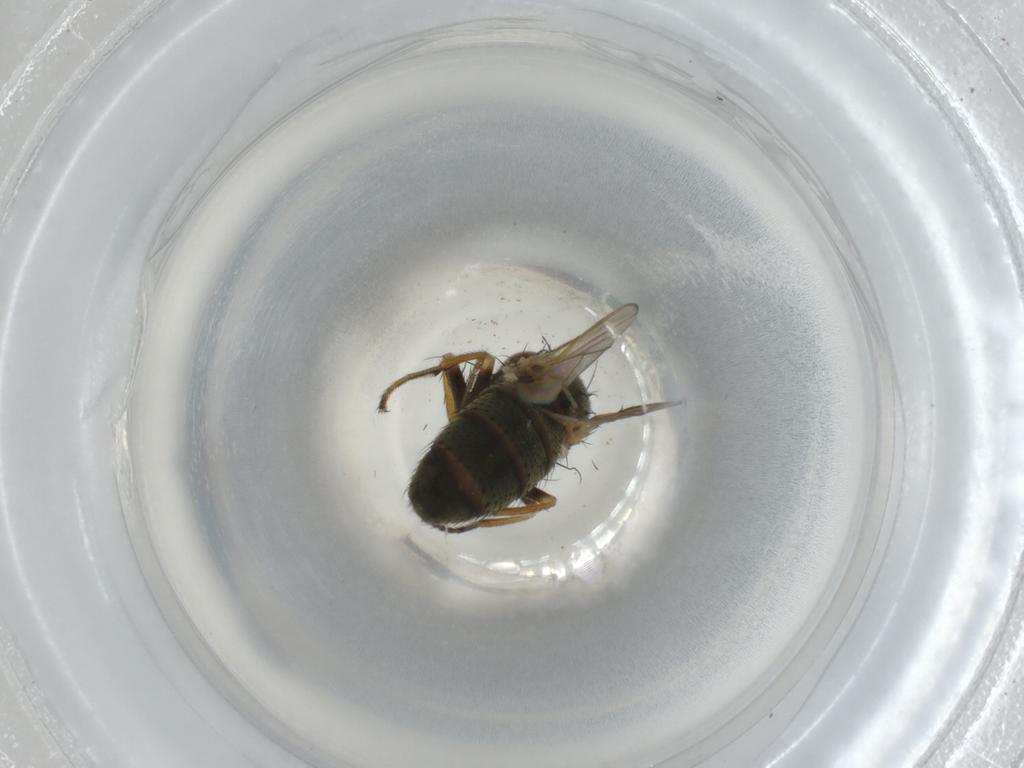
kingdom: Animalia
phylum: Arthropoda
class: Insecta
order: Diptera
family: Ephydridae
